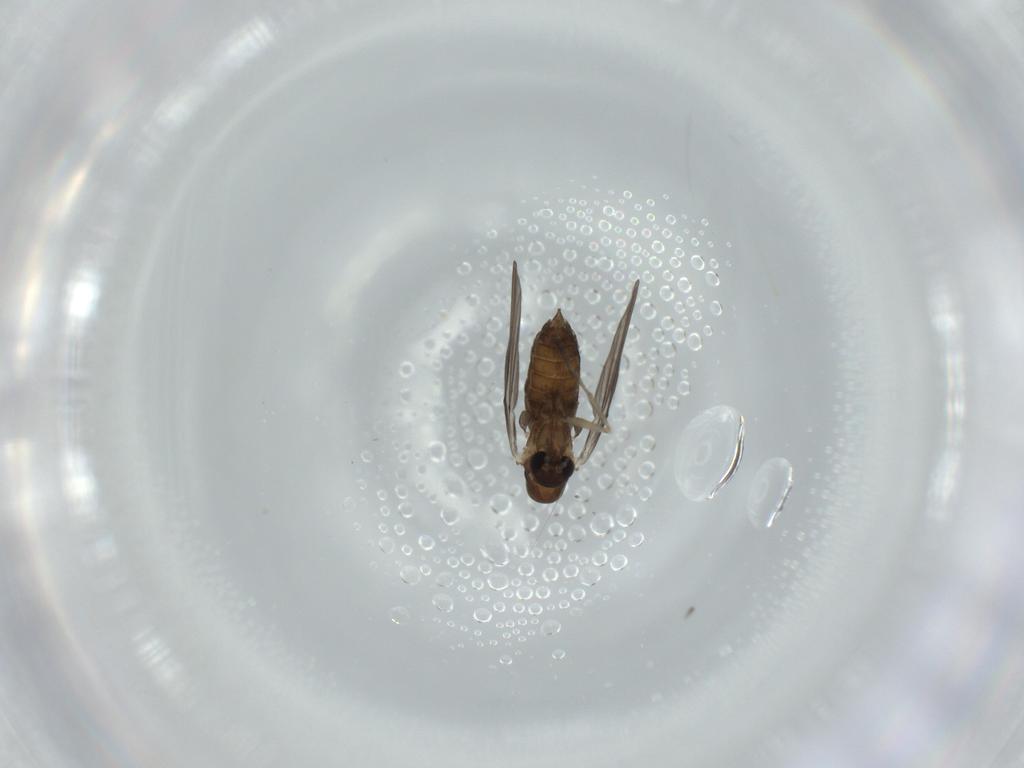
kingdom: Animalia
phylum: Arthropoda
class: Insecta
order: Diptera
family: Psychodidae
